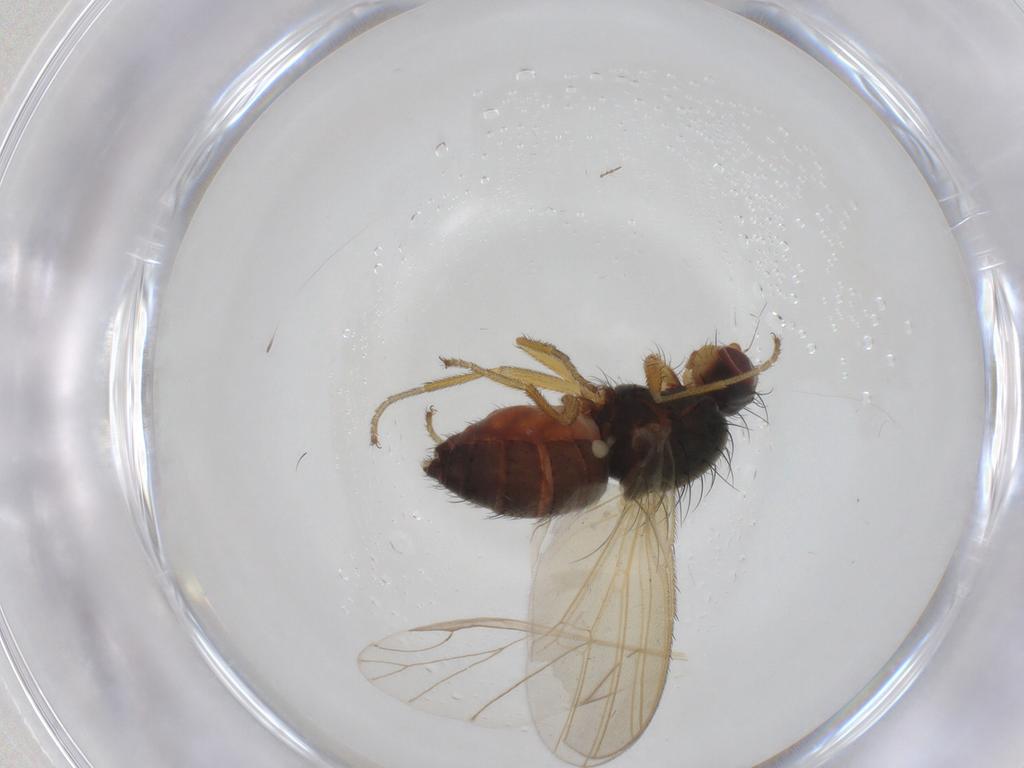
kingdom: Animalia
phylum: Arthropoda
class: Insecta
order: Diptera
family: Heleomyzidae
